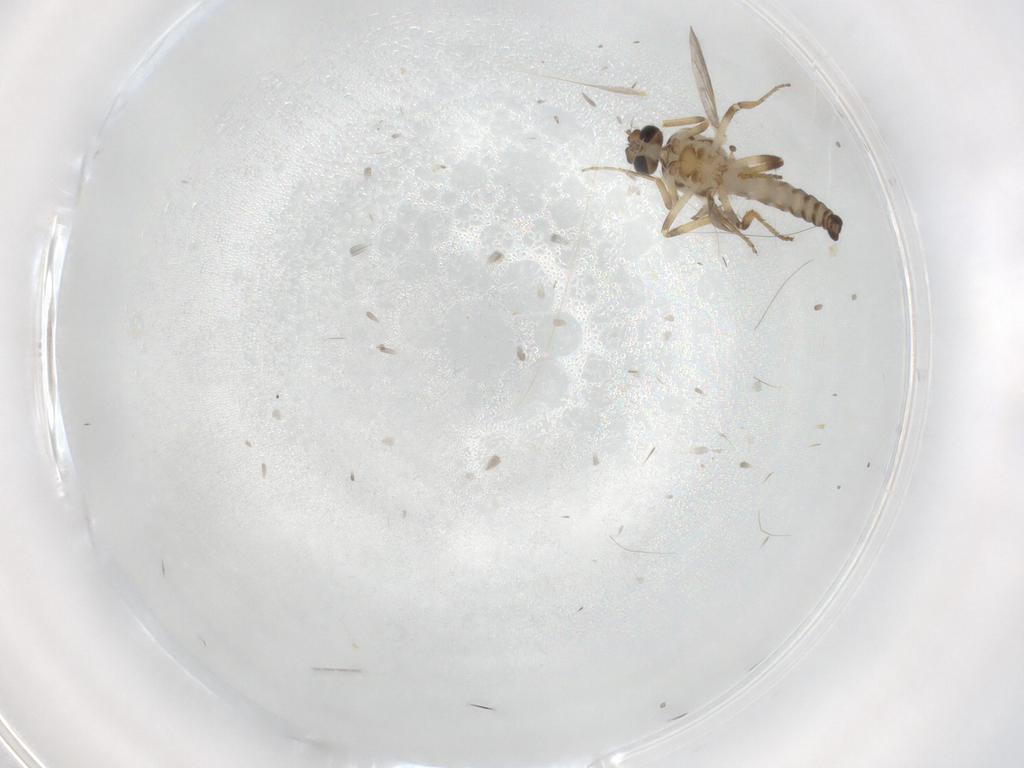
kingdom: Animalia
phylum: Arthropoda
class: Insecta
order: Diptera
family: Ceratopogonidae
